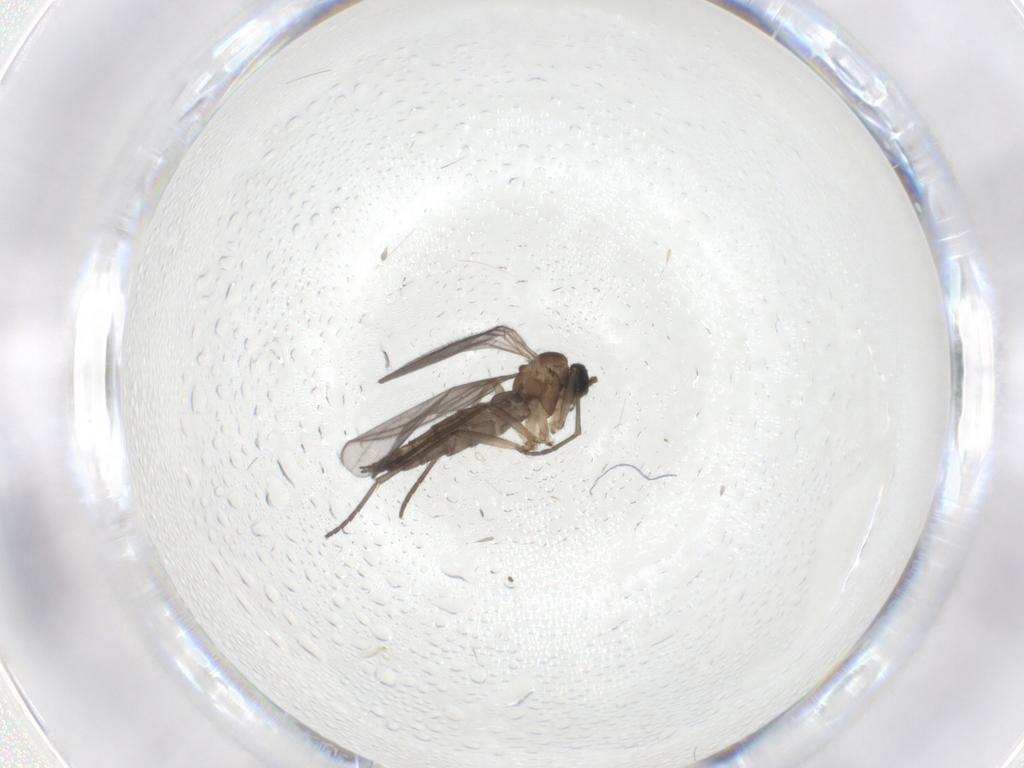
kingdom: Animalia
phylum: Arthropoda
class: Insecta
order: Diptera
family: Sciaridae
